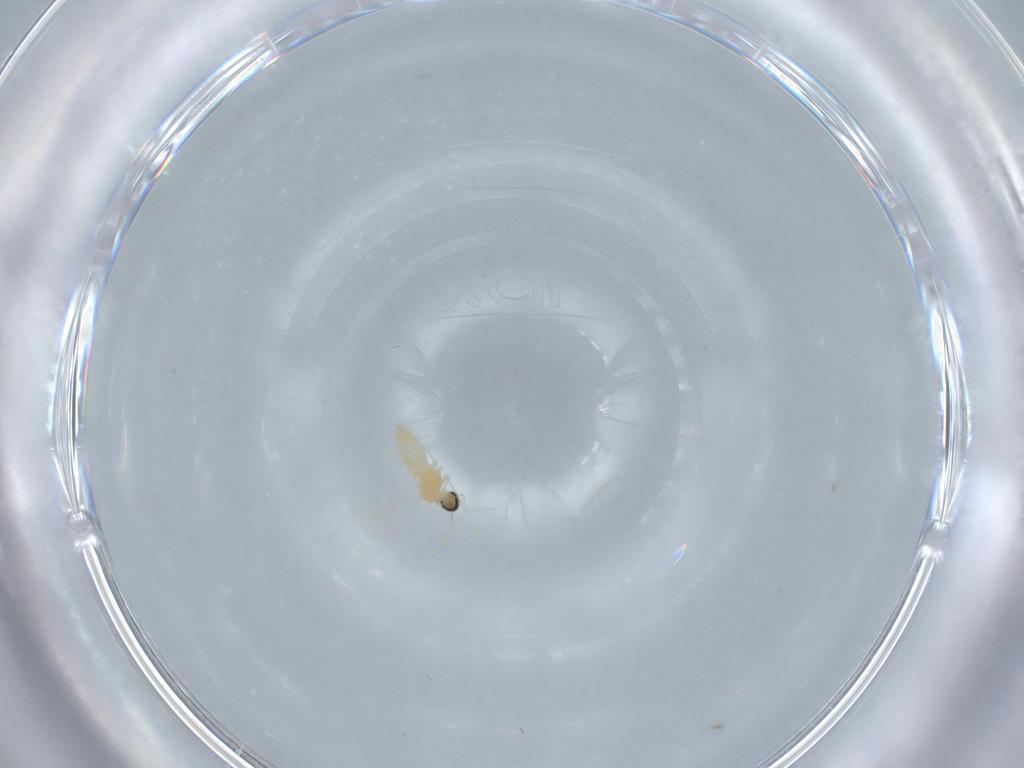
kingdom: Animalia
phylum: Arthropoda
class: Insecta
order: Diptera
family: Cecidomyiidae
